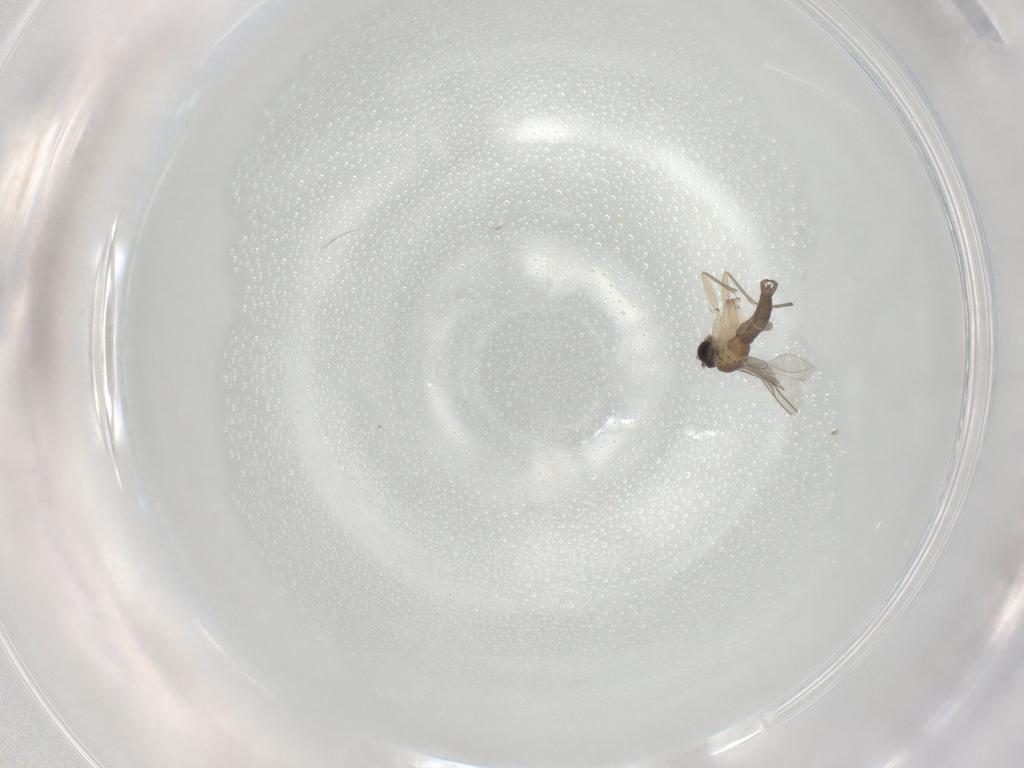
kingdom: Animalia
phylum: Arthropoda
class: Insecta
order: Diptera
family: Sciaridae
